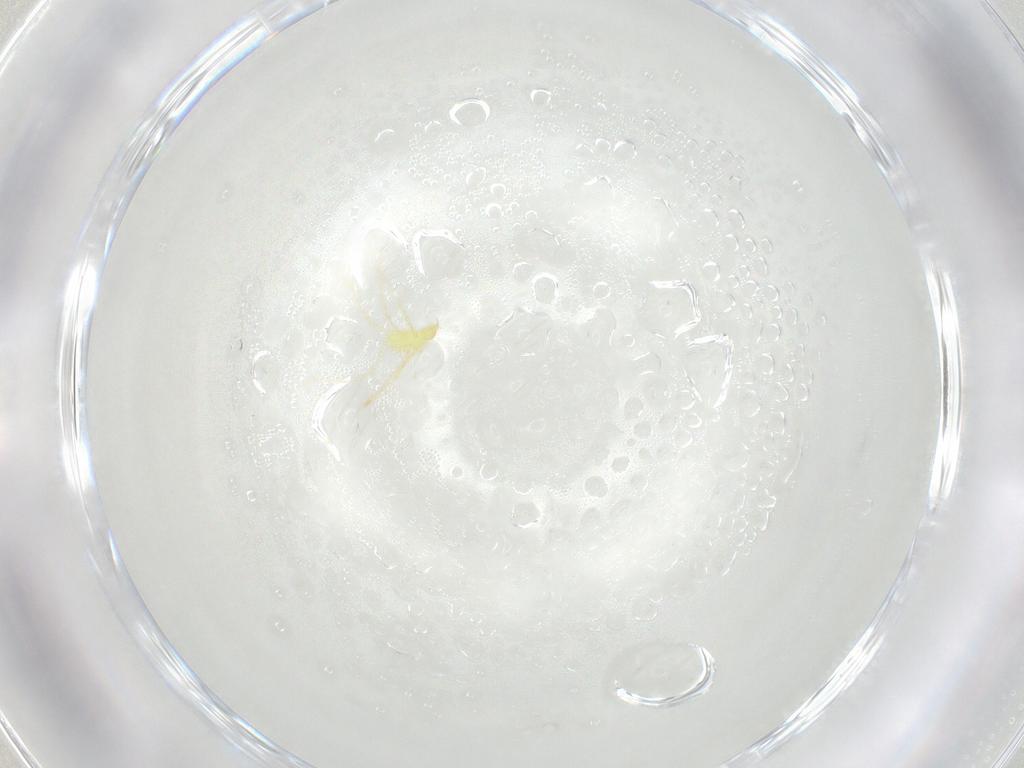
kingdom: Animalia
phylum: Arthropoda
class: Arachnida
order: Trombidiformes
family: Erythraeidae
